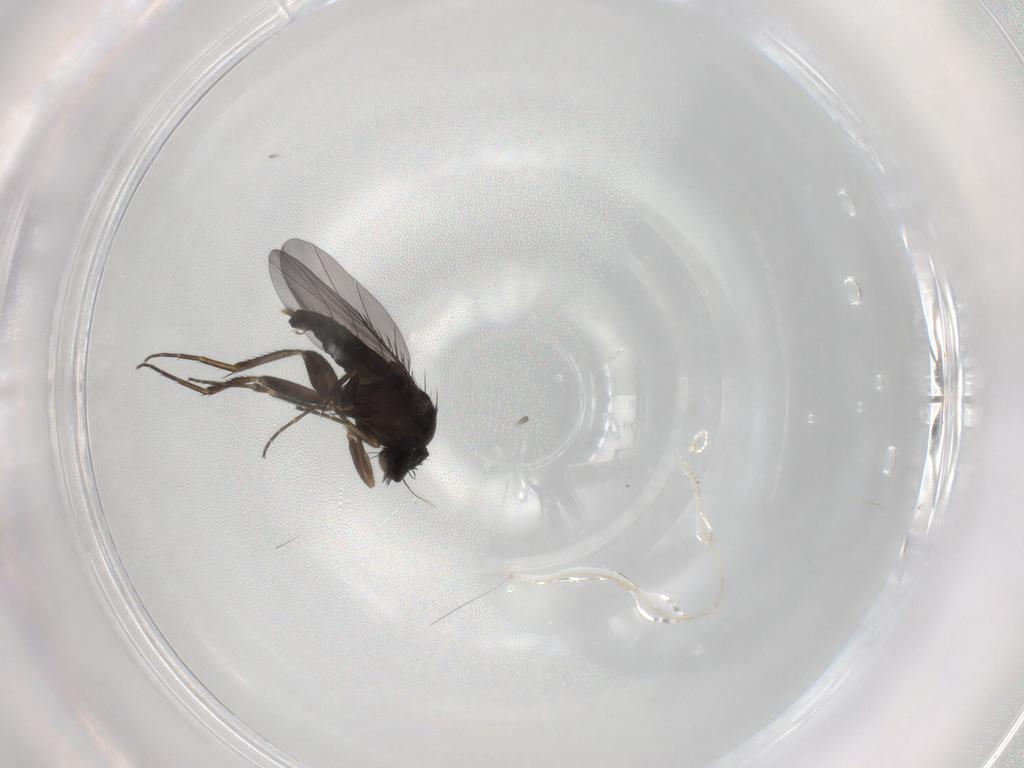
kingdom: Animalia
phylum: Arthropoda
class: Insecta
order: Diptera
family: Phoridae
